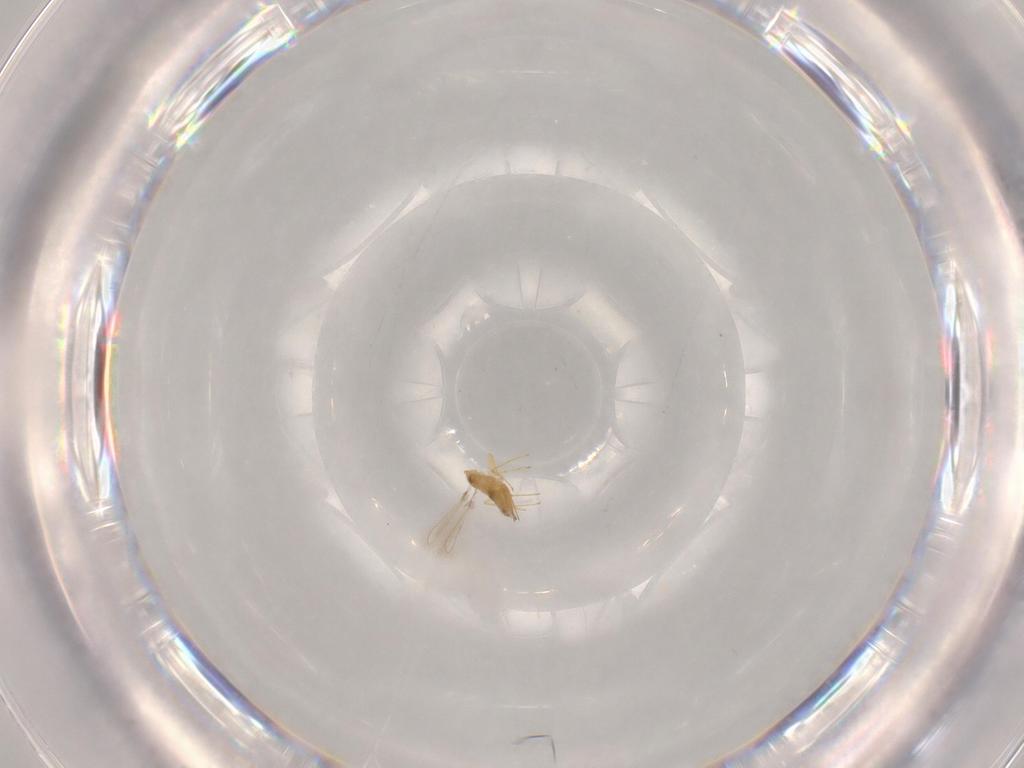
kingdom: Animalia
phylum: Arthropoda
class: Insecta
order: Hymenoptera
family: Mymaridae
